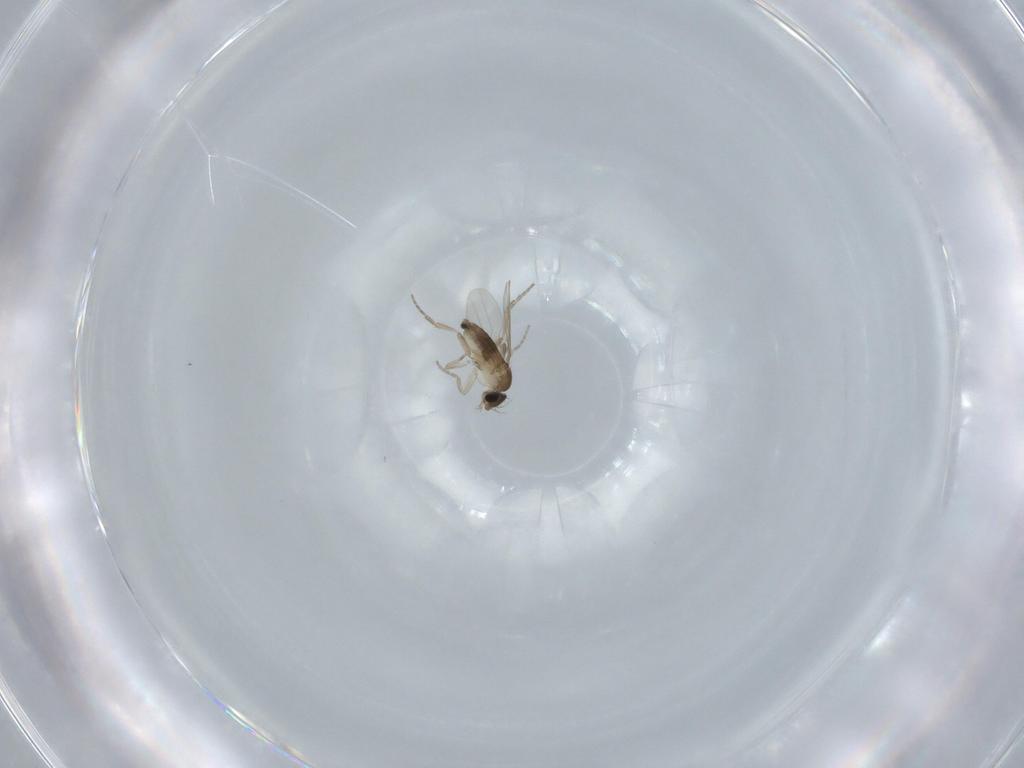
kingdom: Animalia
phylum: Arthropoda
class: Insecta
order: Diptera
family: Phoridae
